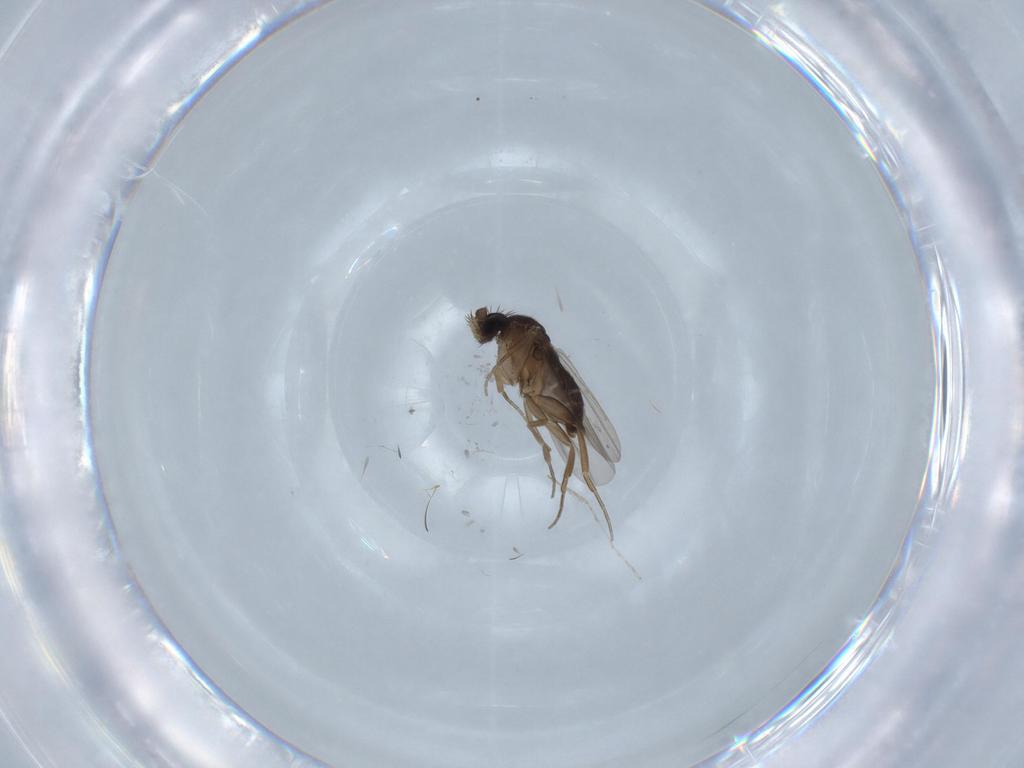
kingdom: Animalia
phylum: Arthropoda
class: Insecta
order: Diptera
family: Phoridae
